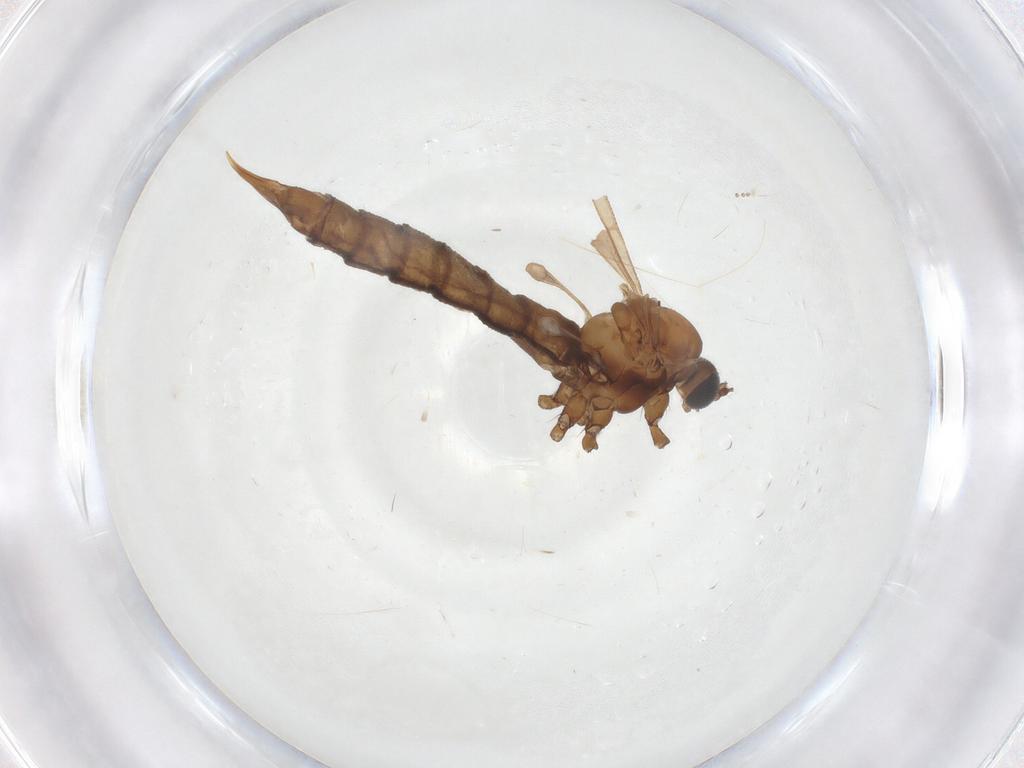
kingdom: Animalia
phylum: Arthropoda
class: Insecta
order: Diptera
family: Limoniidae
